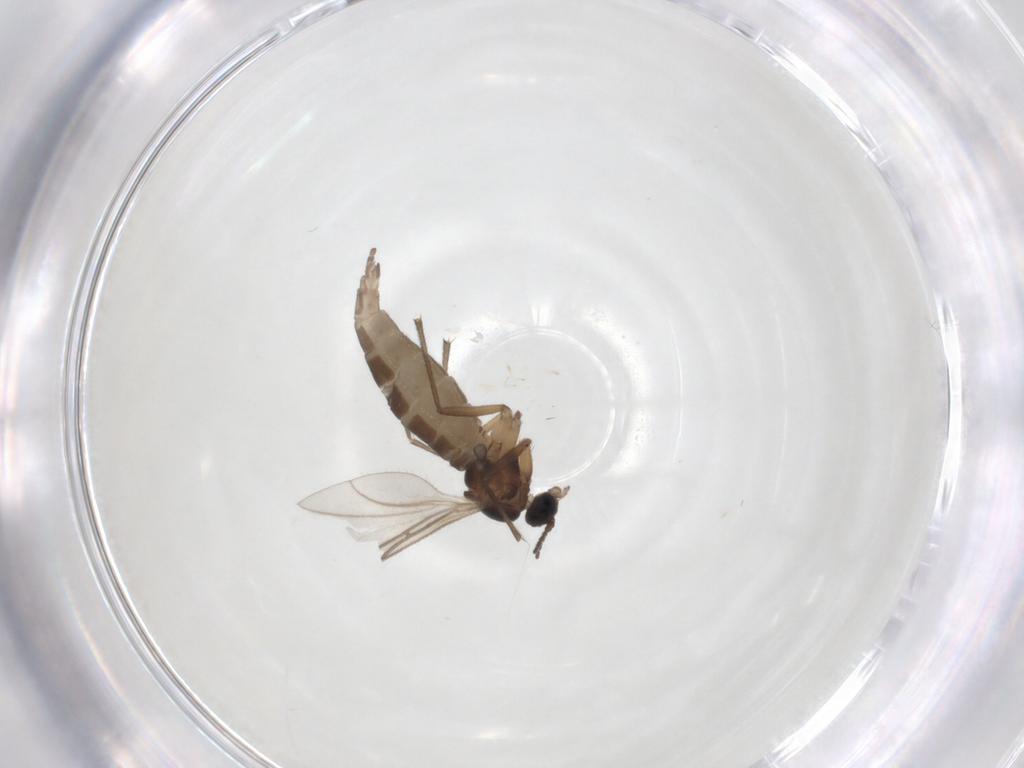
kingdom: Animalia
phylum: Arthropoda
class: Insecta
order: Diptera
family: Sciaridae
